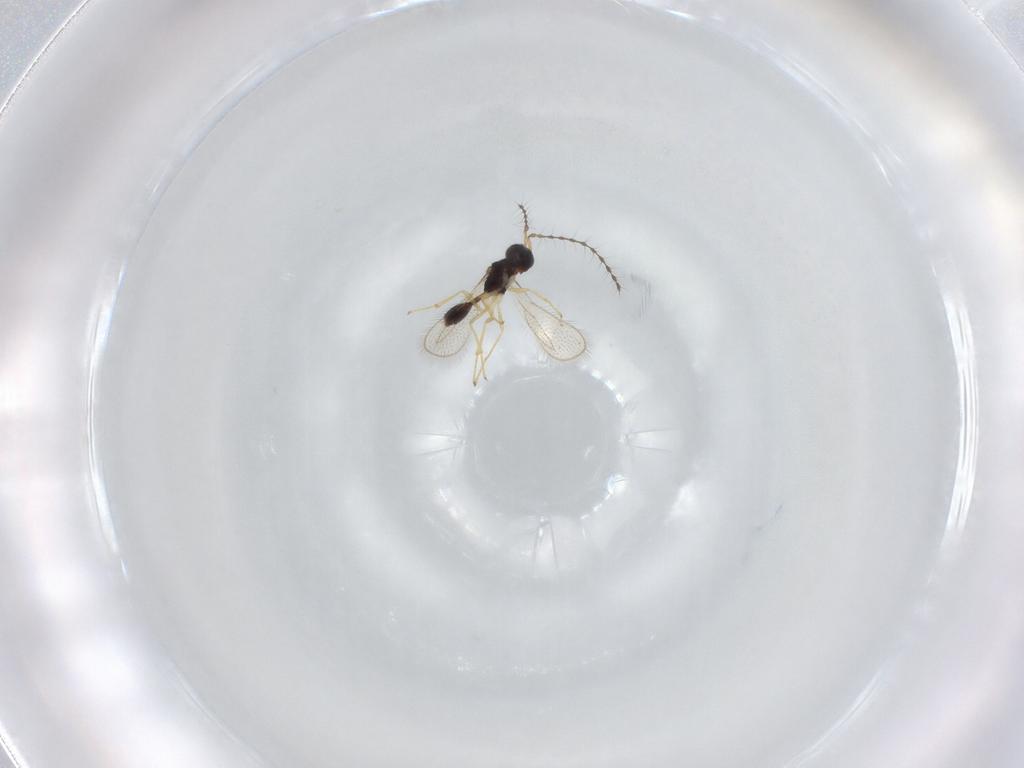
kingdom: Animalia
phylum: Arthropoda
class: Insecta
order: Hymenoptera
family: Diparidae
